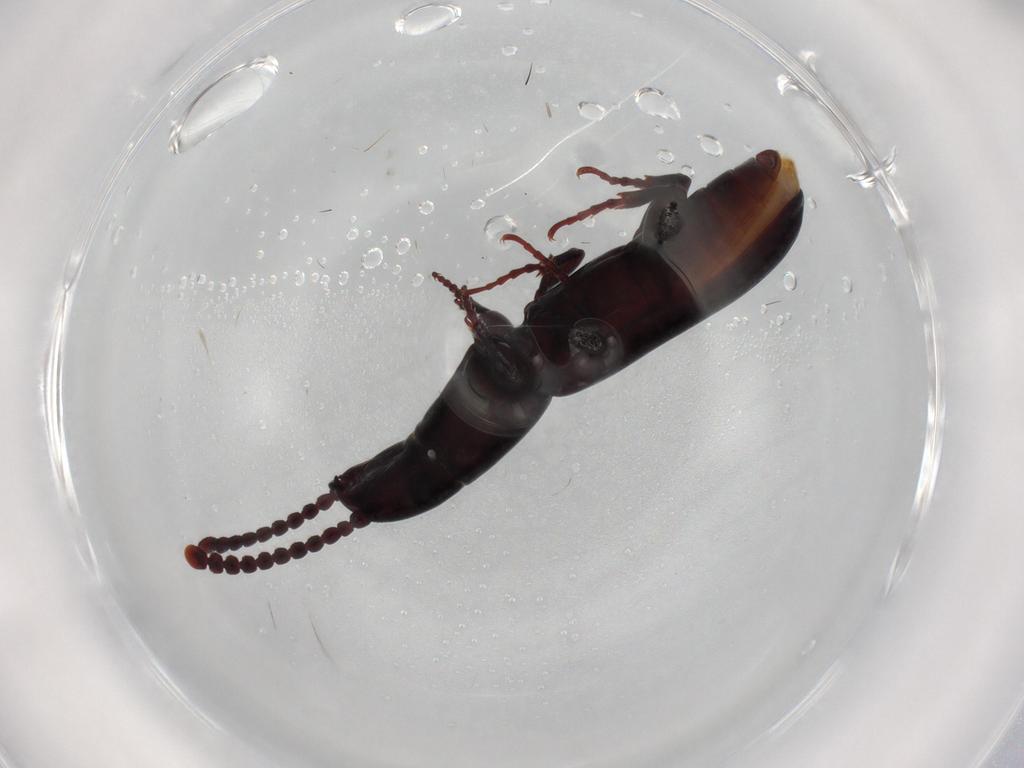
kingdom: Animalia
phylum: Arthropoda
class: Insecta
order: Coleoptera
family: Passandridae
